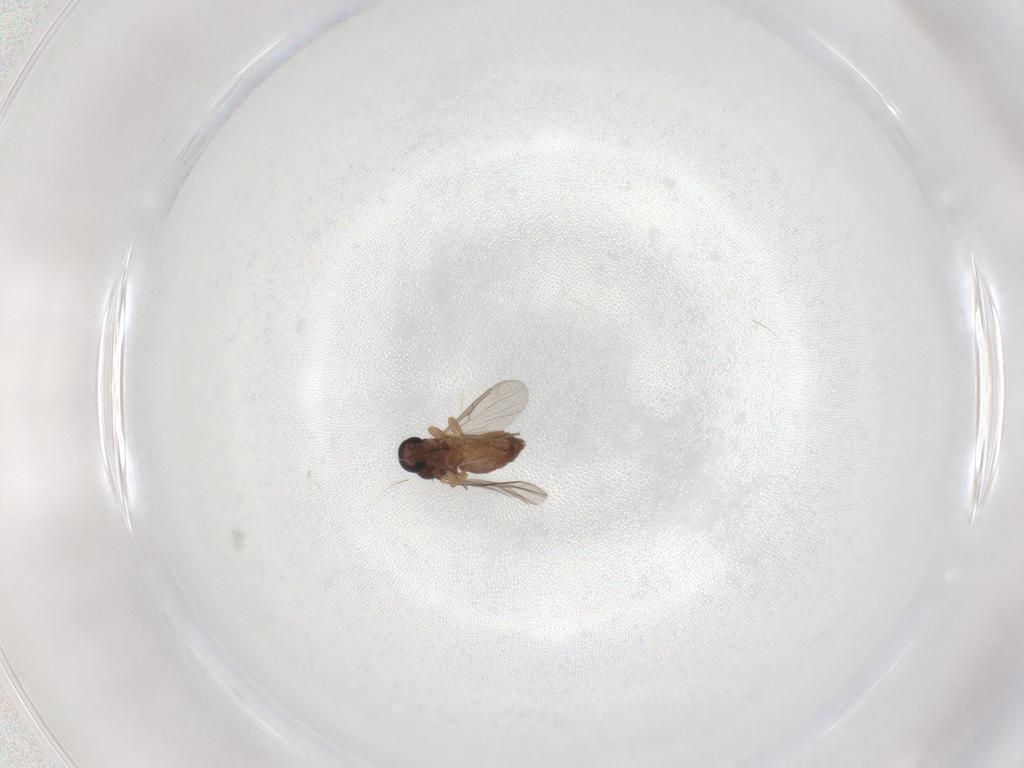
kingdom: Animalia
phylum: Arthropoda
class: Insecta
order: Diptera
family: Ceratopogonidae
